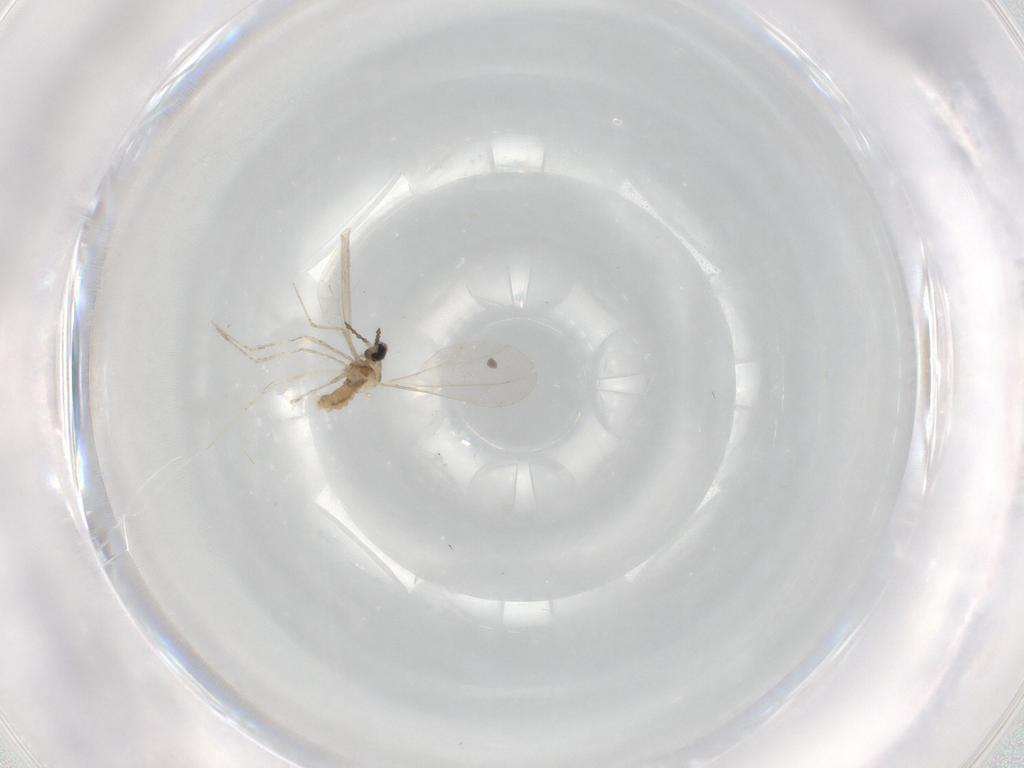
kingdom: Animalia
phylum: Arthropoda
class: Insecta
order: Diptera
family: Cecidomyiidae
